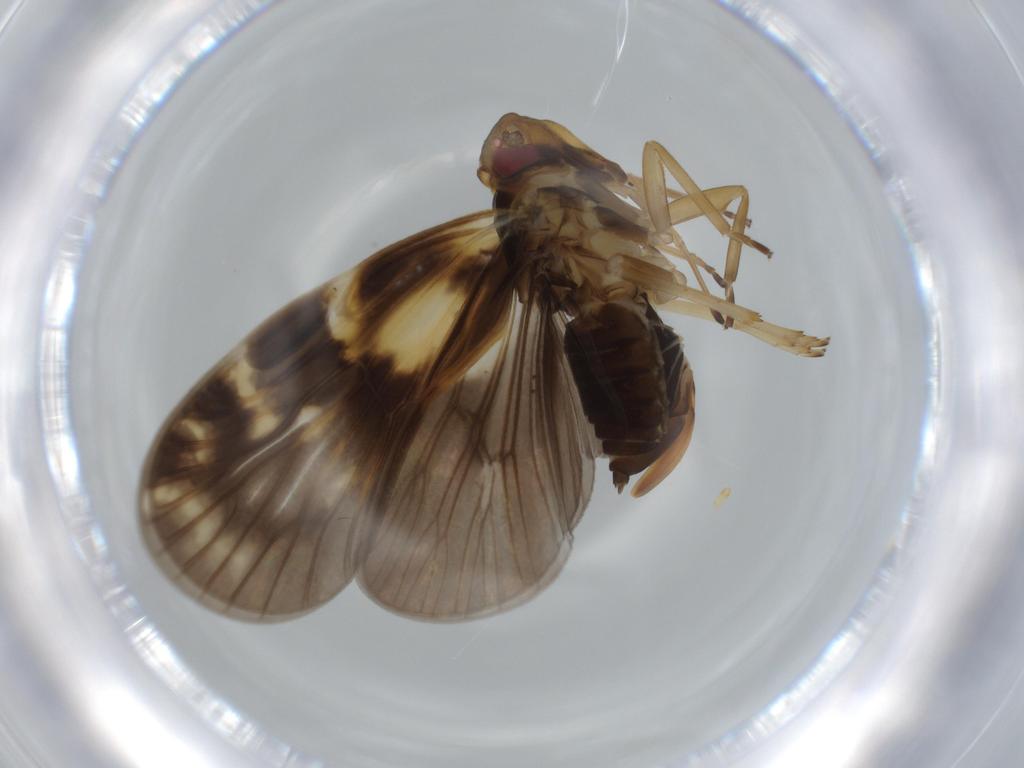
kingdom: Animalia
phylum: Arthropoda
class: Insecta
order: Hemiptera
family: Cixiidae
